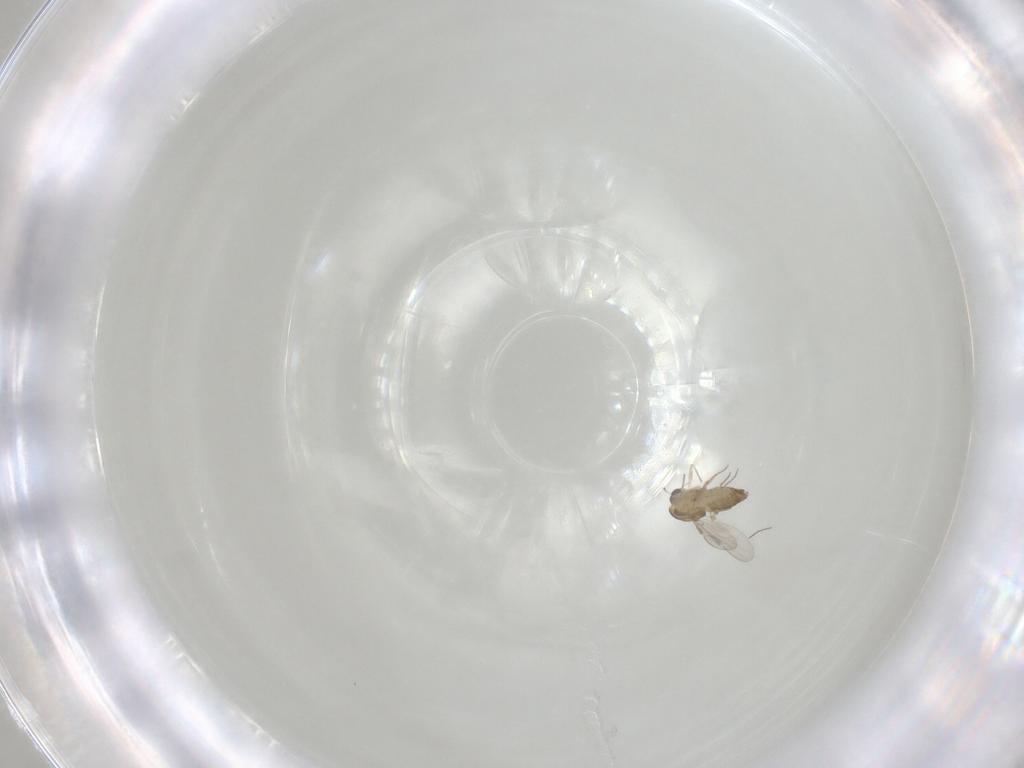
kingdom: Animalia
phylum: Arthropoda
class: Insecta
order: Diptera
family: Chironomidae
